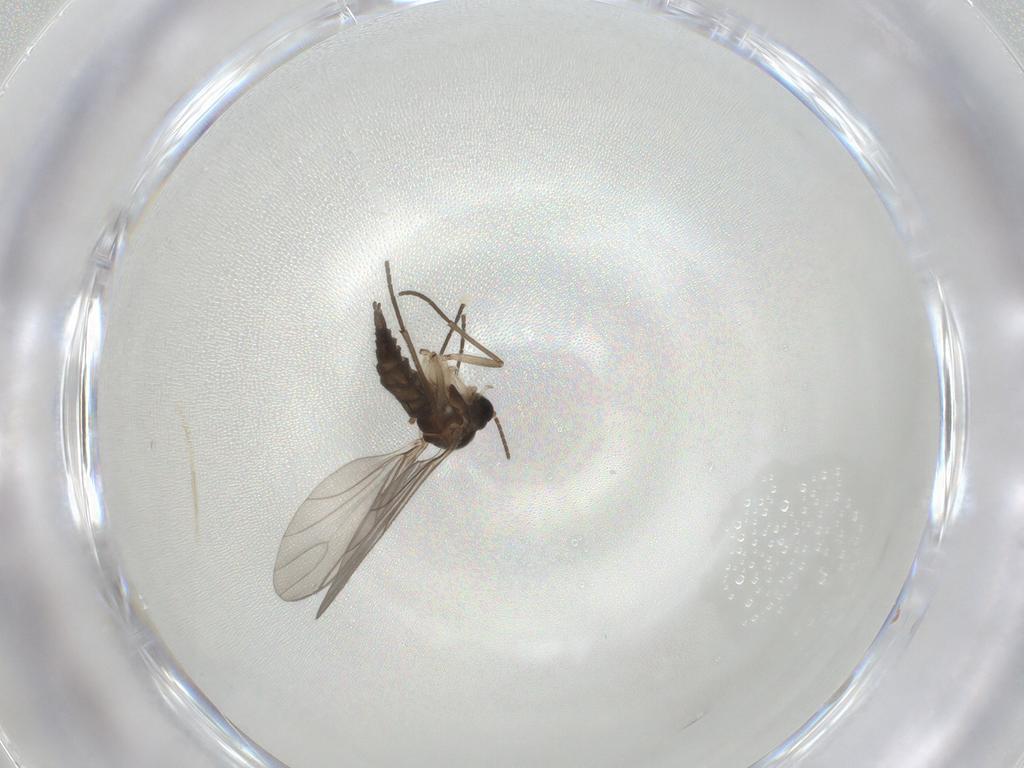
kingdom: Animalia
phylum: Arthropoda
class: Insecta
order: Diptera
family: Sciaridae
